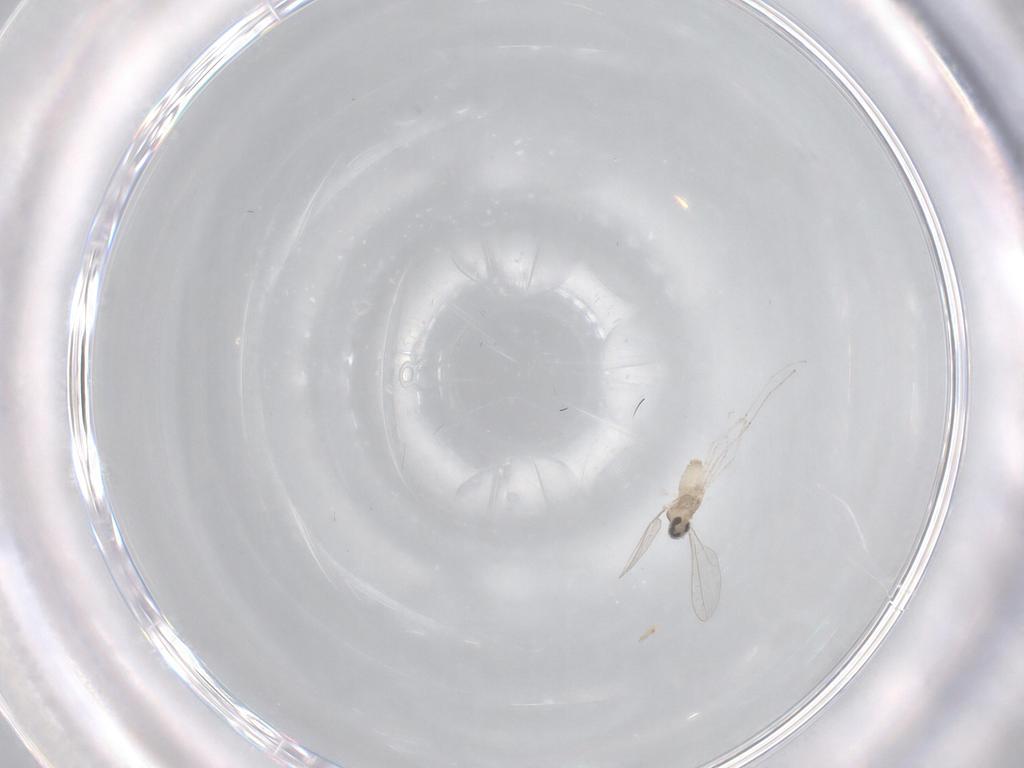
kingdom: Animalia
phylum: Arthropoda
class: Insecta
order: Diptera
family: Cecidomyiidae
